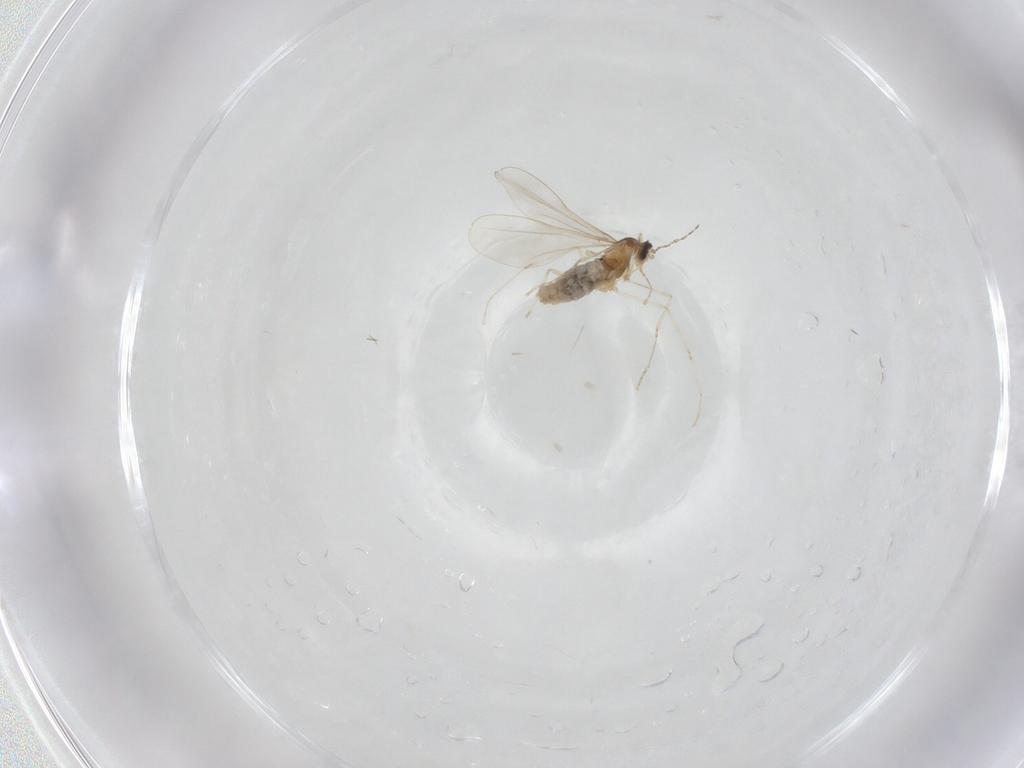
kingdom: Animalia
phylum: Arthropoda
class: Insecta
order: Diptera
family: Cecidomyiidae
